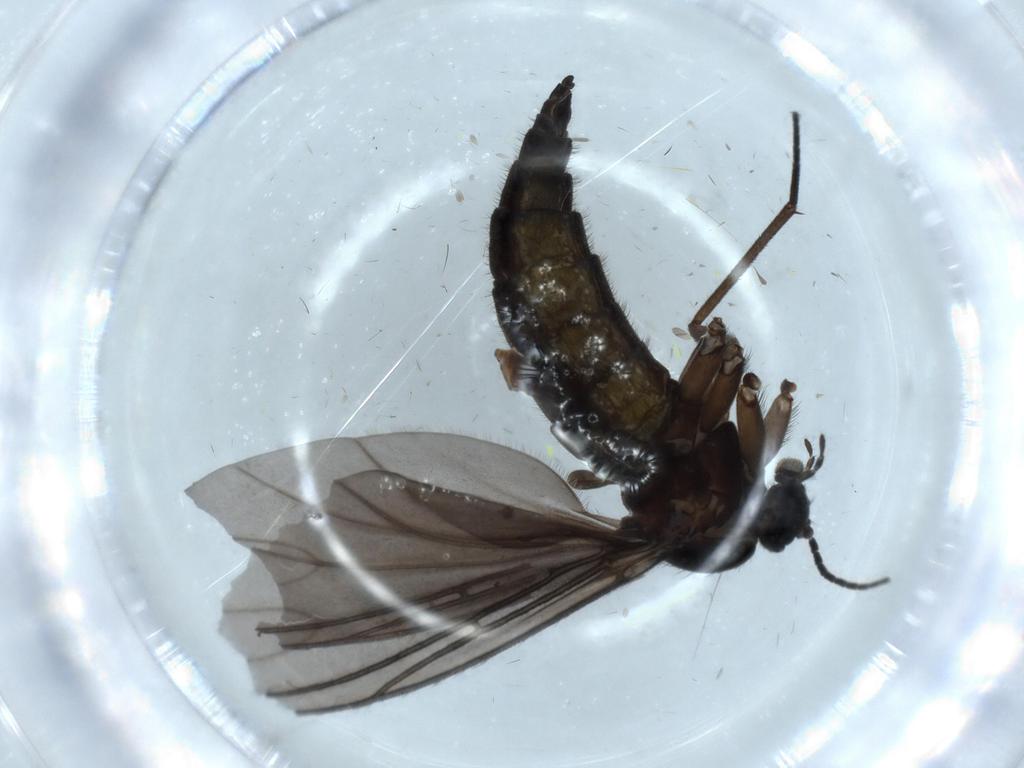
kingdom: Animalia
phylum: Arthropoda
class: Insecta
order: Diptera
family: Sciaridae
